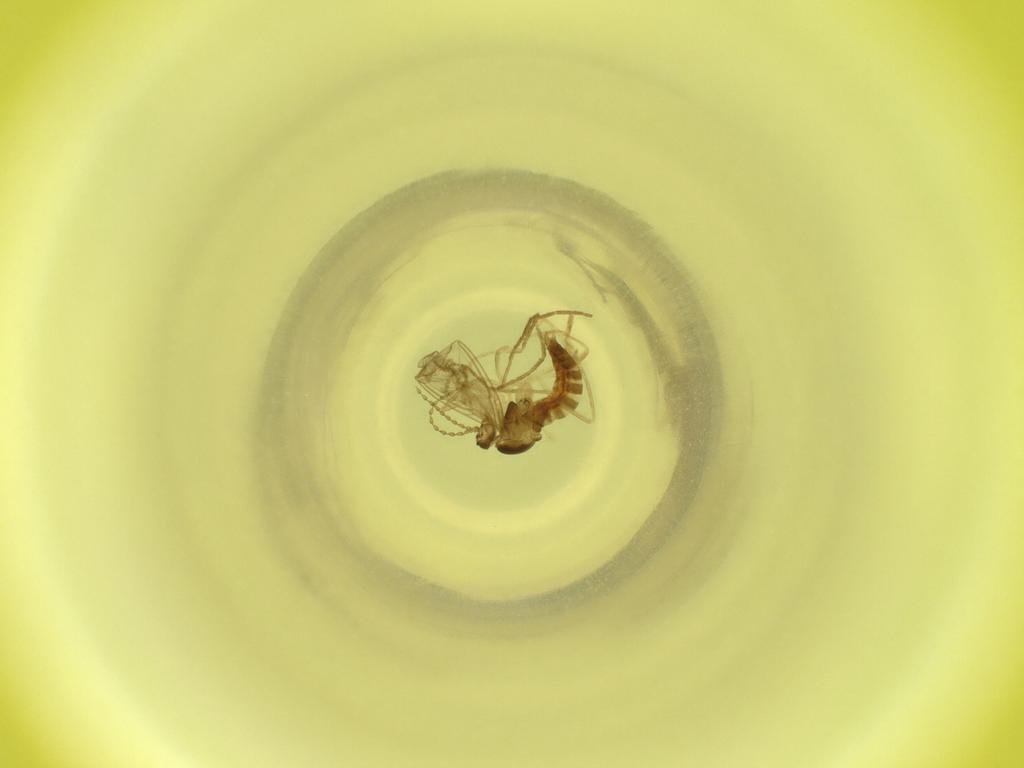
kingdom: Animalia
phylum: Arthropoda
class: Insecta
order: Diptera
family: Cecidomyiidae
